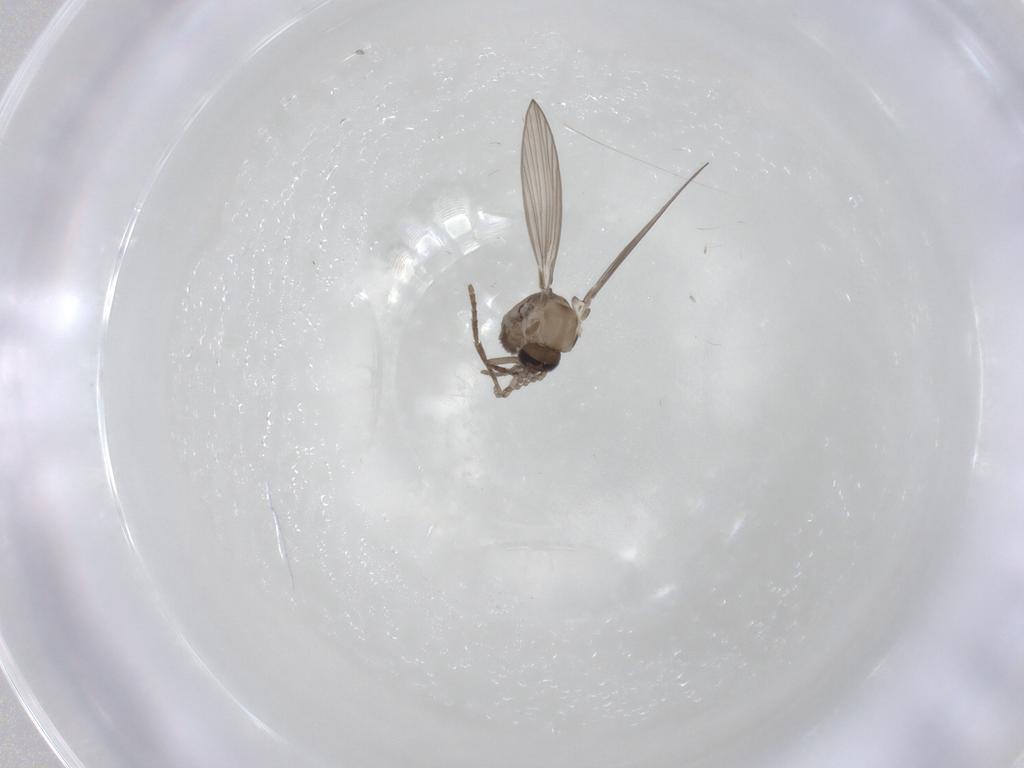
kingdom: Animalia
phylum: Arthropoda
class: Insecta
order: Diptera
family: Psychodidae
